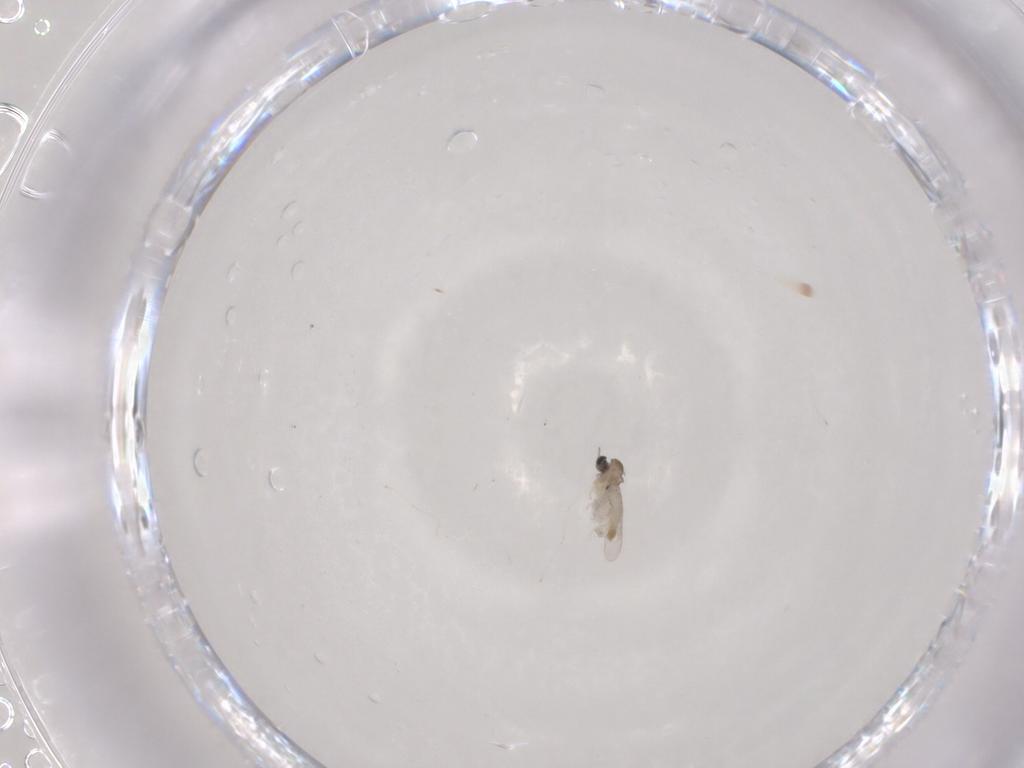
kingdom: Animalia
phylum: Arthropoda
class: Insecta
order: Diptera
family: Cecidomyiidae
